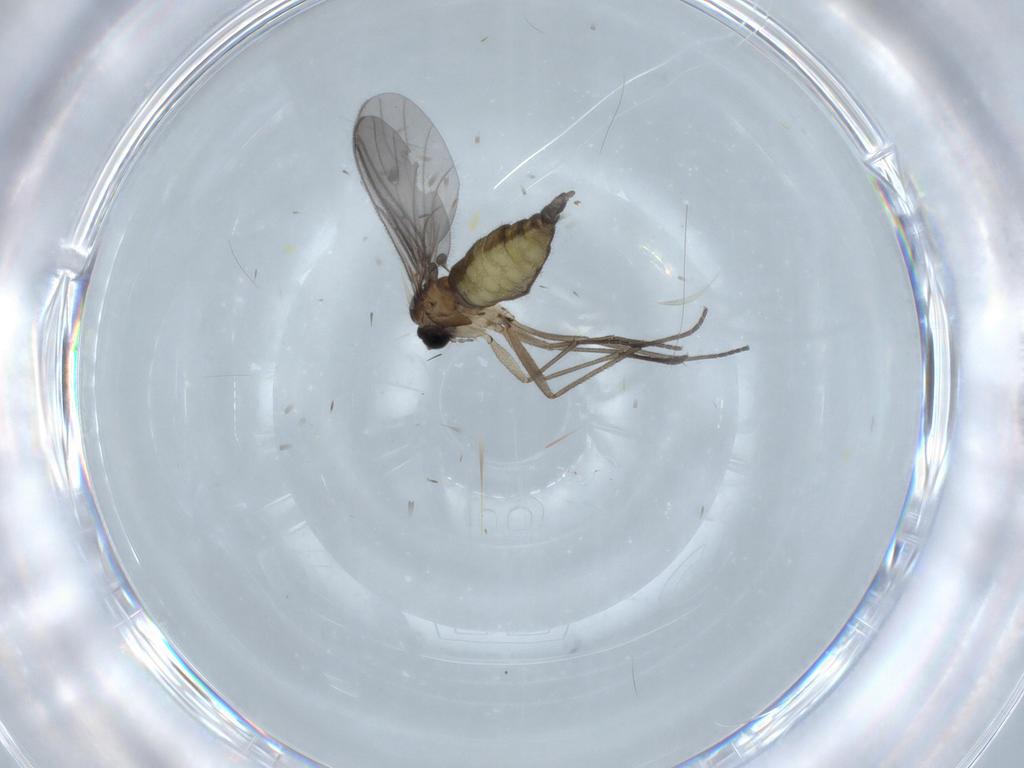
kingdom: Animalia
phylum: Arthropoda
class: Insecta
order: Diptera
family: Sciaridae
